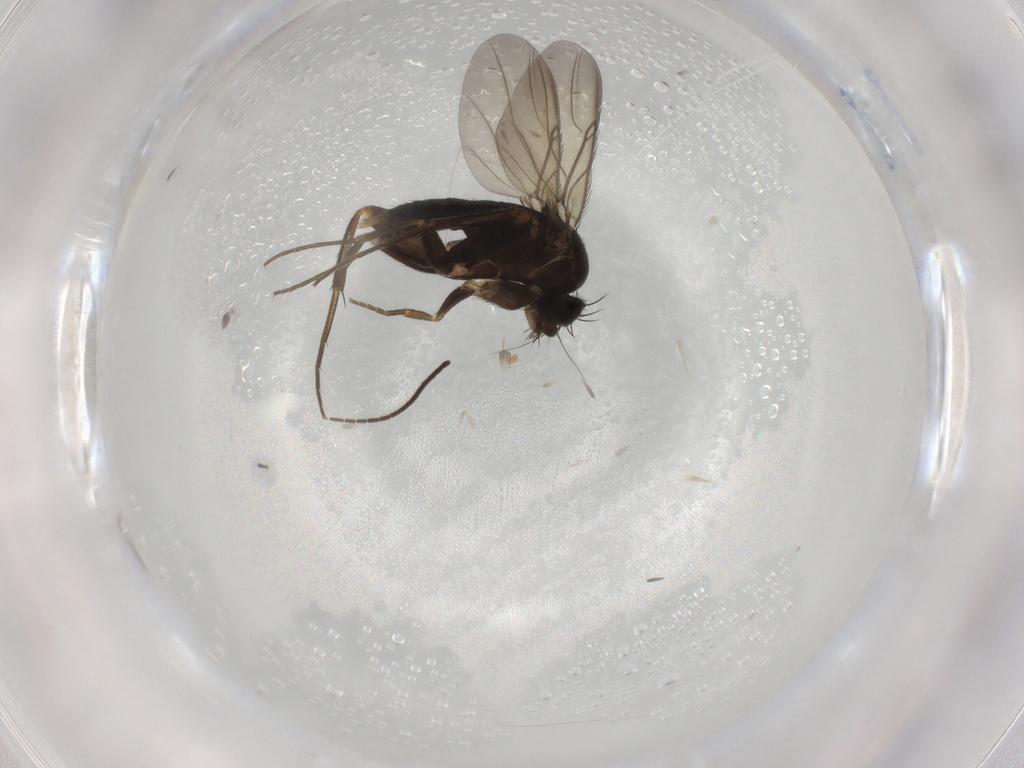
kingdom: Animalia
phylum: Arthropoda
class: Insecta
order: Diptera
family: Phoridae
